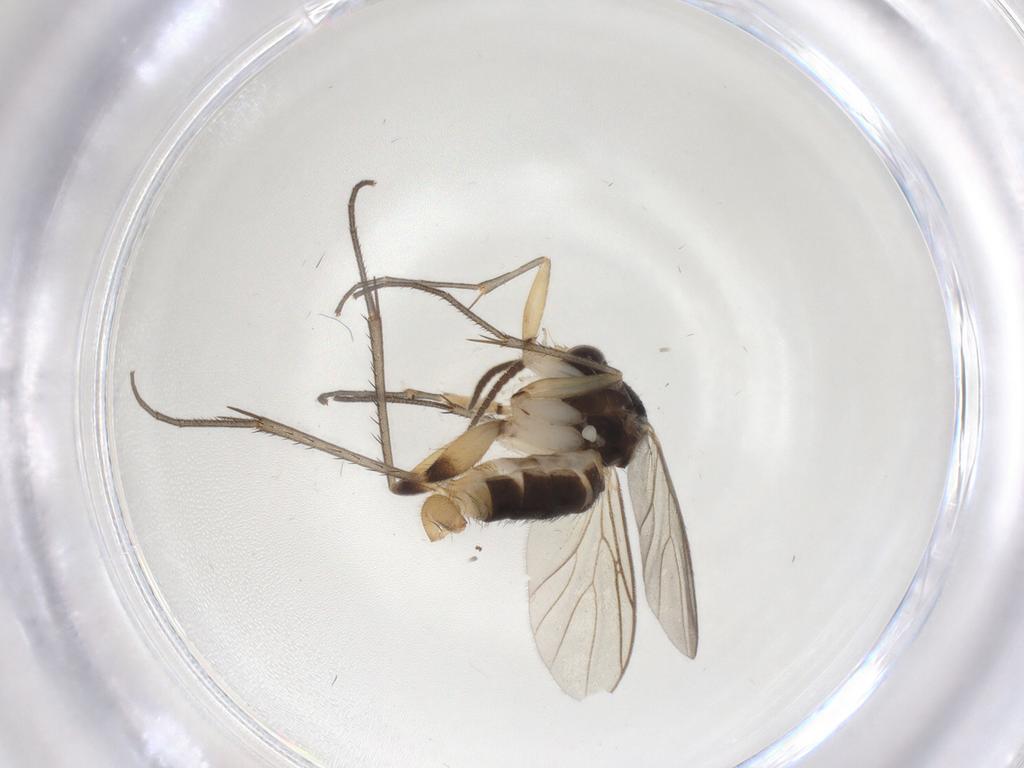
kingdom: Animalia
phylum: Arthropoda
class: Insecta
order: Diptera
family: Mycetophilidae
